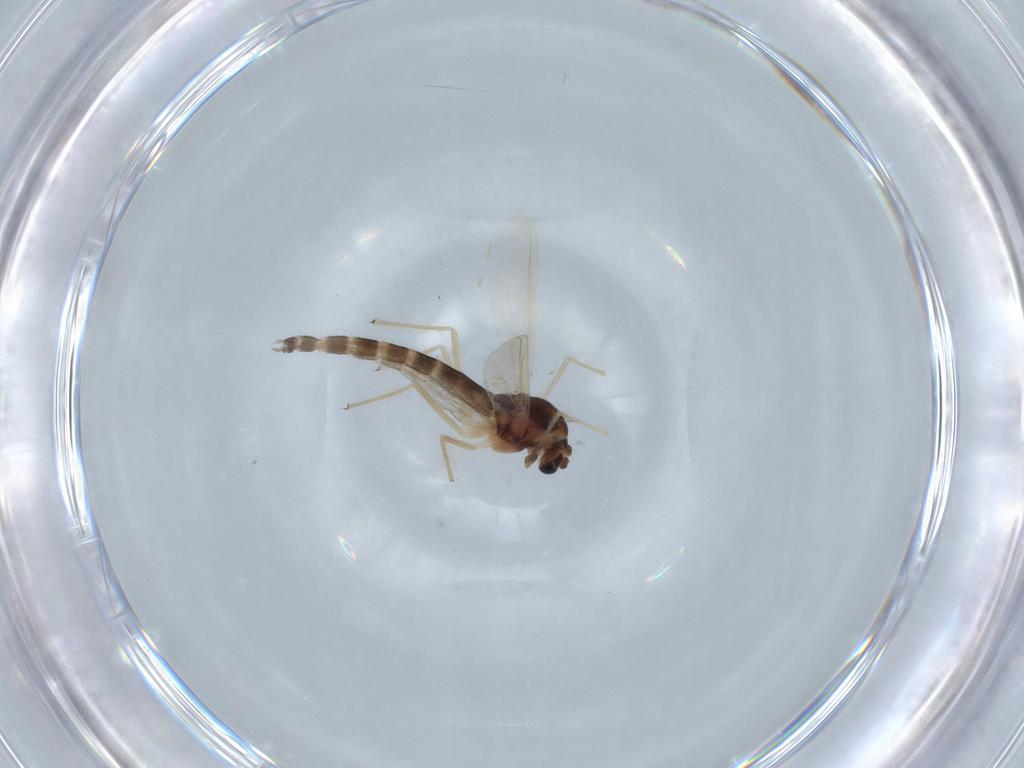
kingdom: Animalia
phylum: Arthropoda
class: Insecta
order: Diptera
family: Chironomidae
